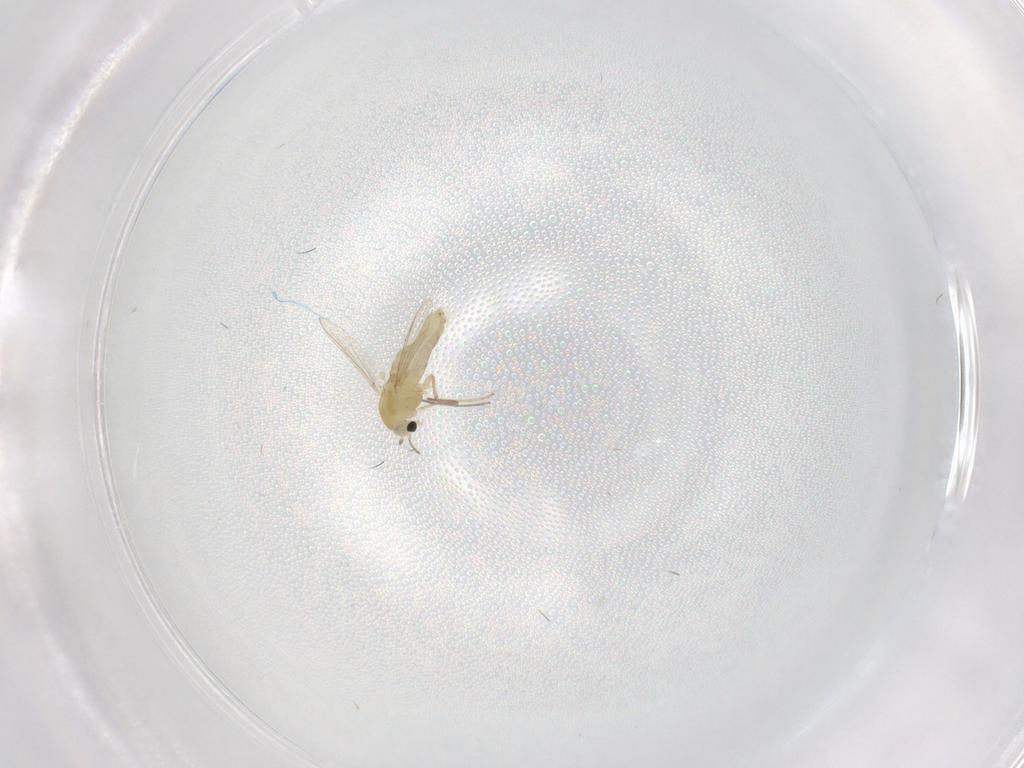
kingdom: Animalia
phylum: Arthropoda
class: Insecta
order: Diptera
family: Chironomidae
